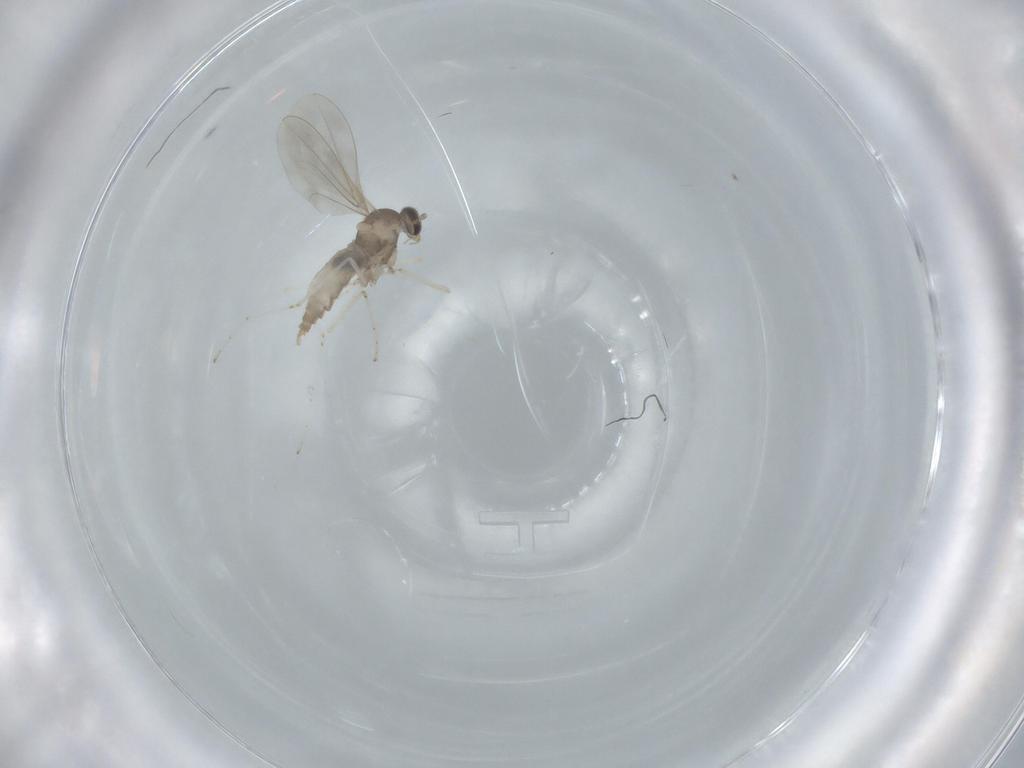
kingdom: Animalia
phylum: Arthropoda
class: Insecta
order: Diptera
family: Cecidomyiidae
